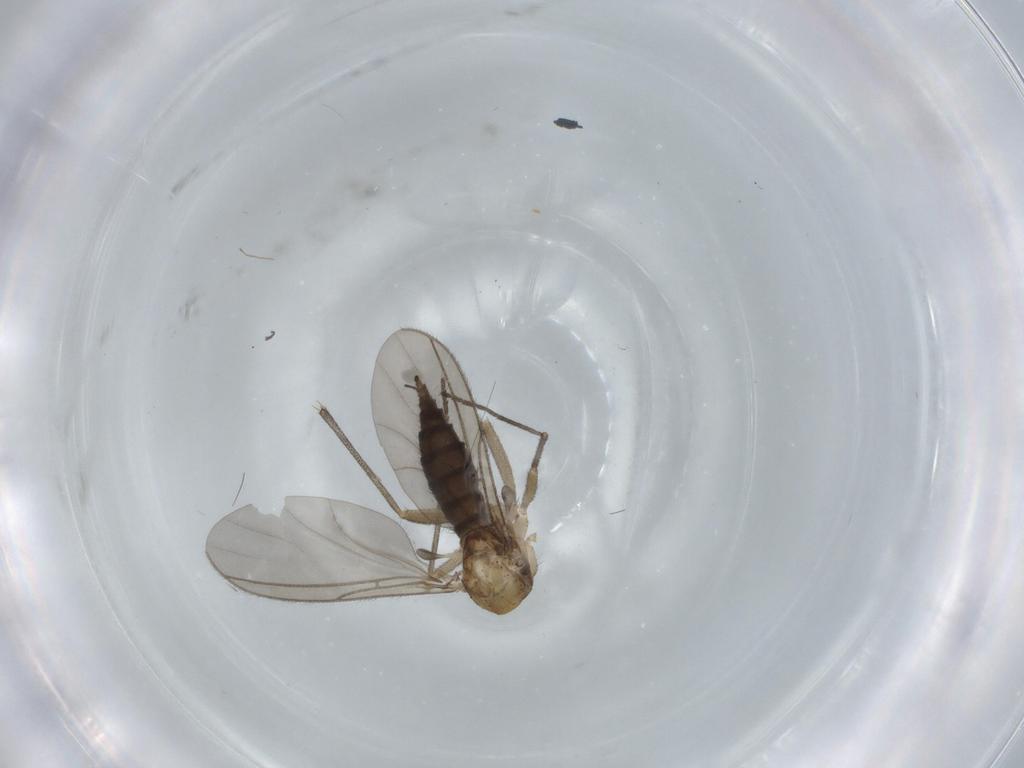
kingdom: Animalia
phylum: Arthropoda
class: Insecta
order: Diptera
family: Sciaridae
